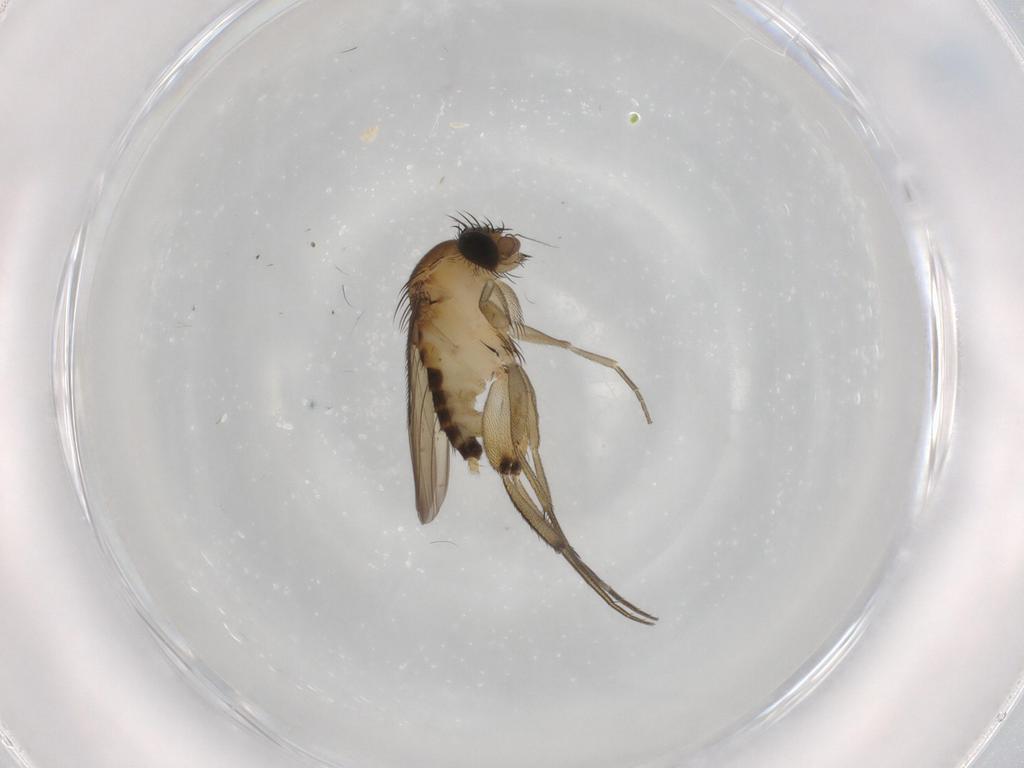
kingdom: Animalia
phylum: Arthropoda
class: Insecta
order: Diptera
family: Phoridae
